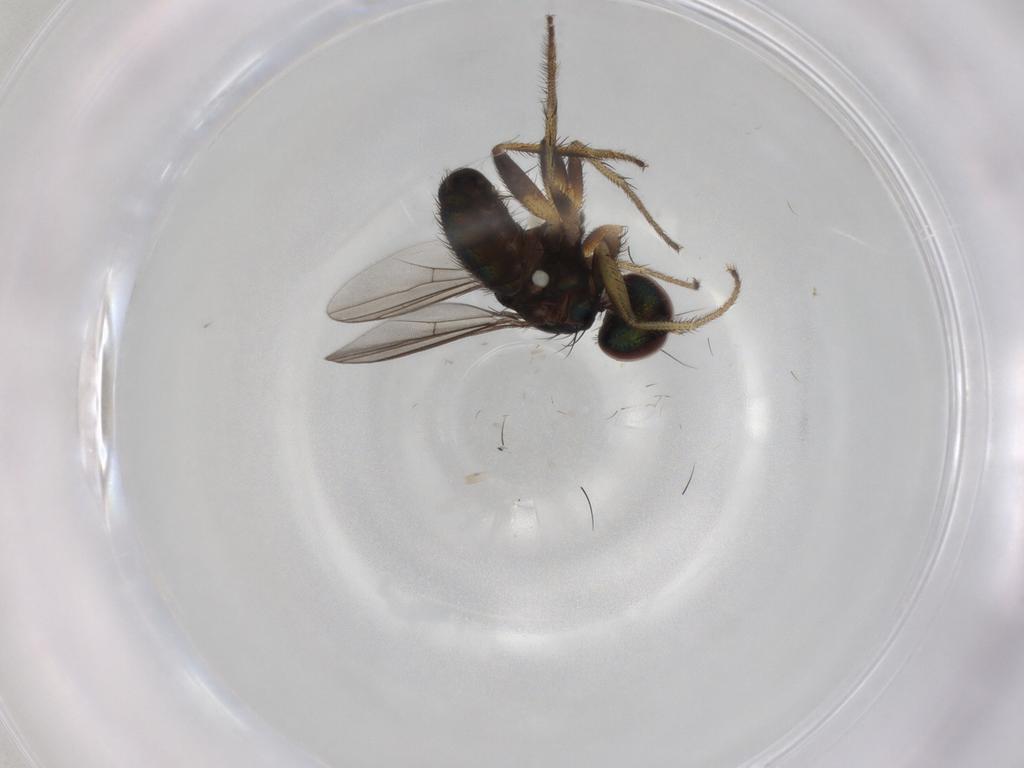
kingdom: Animalia
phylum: Arthropoda
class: Insecta
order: Diptera
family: Dolichopodidae
